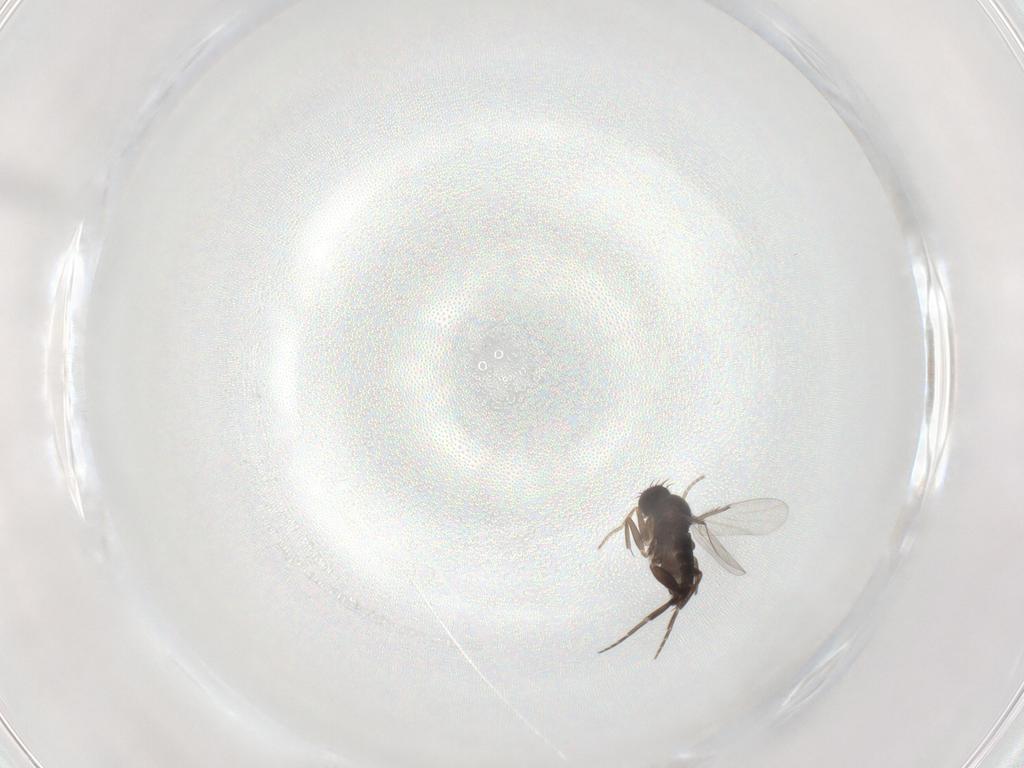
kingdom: Animalia
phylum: Arthropoda
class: Insecta
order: Diptera
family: Phoridae
